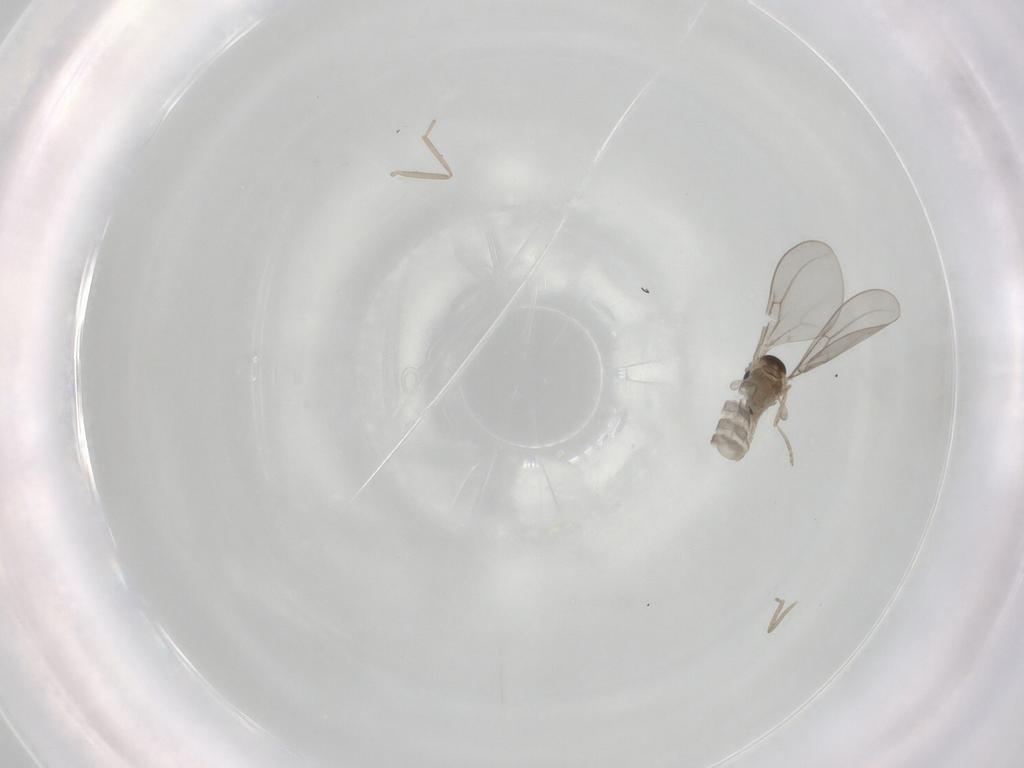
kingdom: Animalia
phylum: Arthropoda
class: Insecta
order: Diptera
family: Cecidomyiidae
